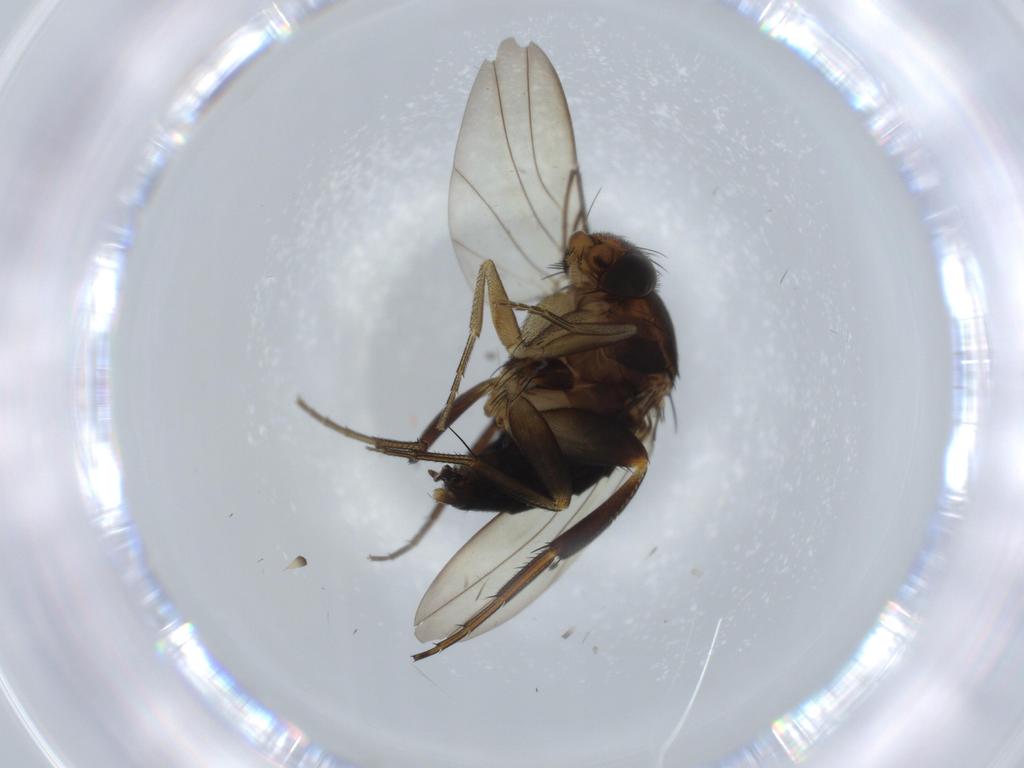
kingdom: Animalia
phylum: Arthropoda
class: Insecta
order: Diptera
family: Phoridae
